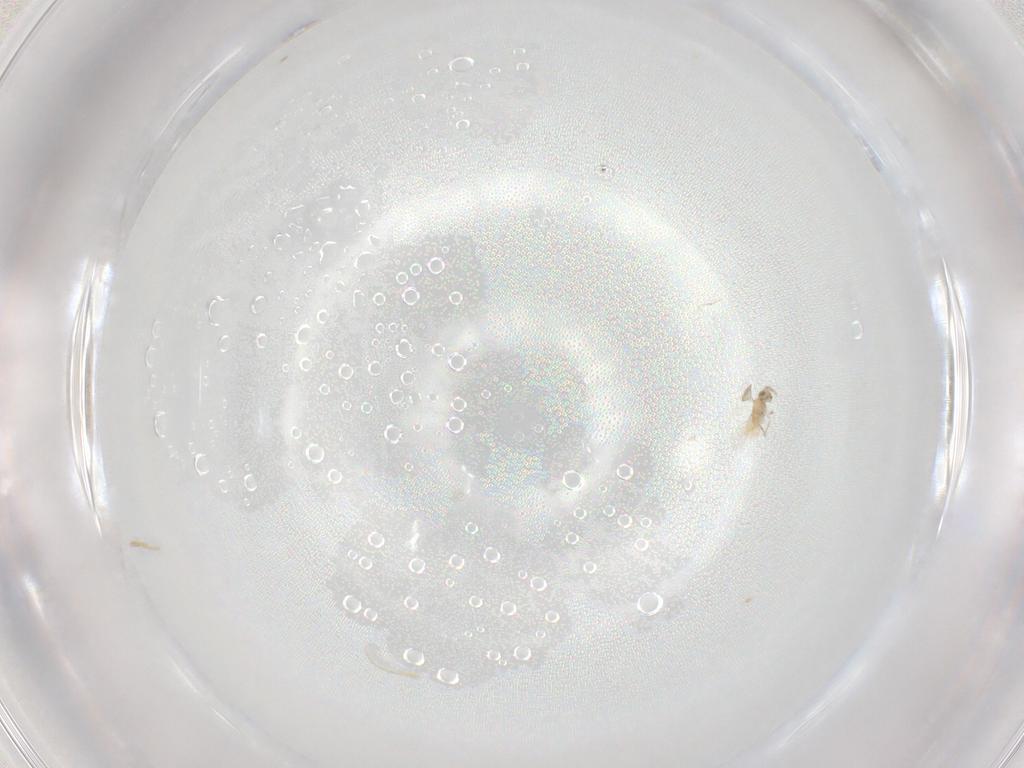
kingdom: Animalia
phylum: Arthropoda
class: Insecta
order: Hymenoptera
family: Aphelinidae
